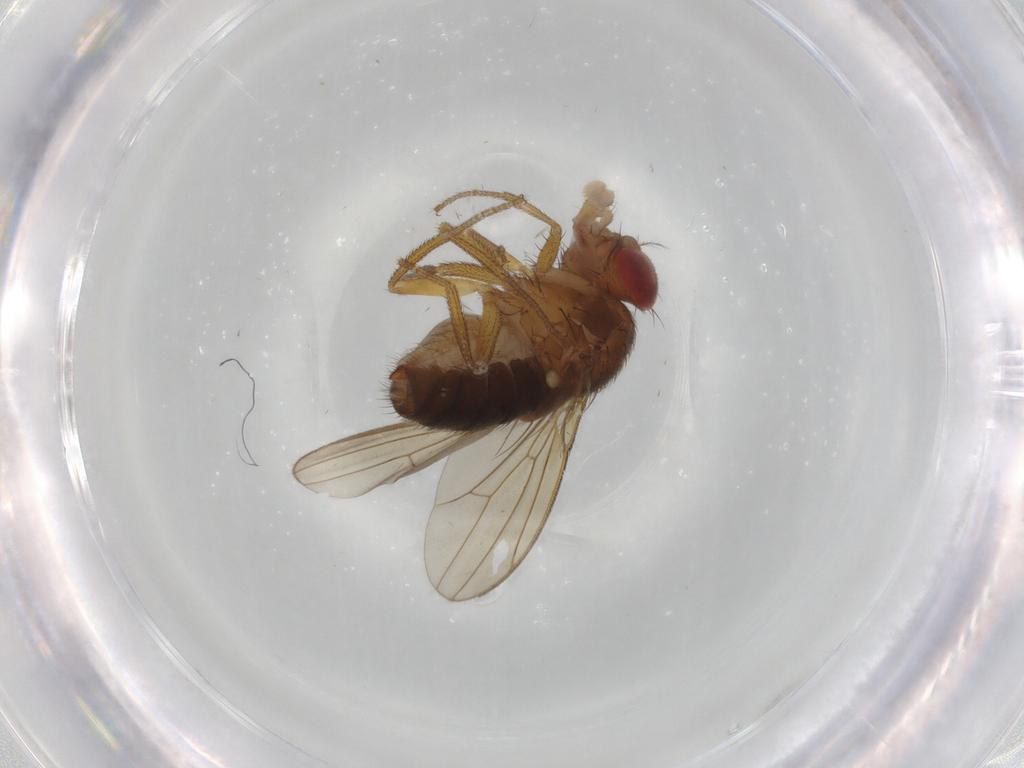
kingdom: Animalia
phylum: Arthropoda
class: Insecta
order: Diptera
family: Drosophilidae
